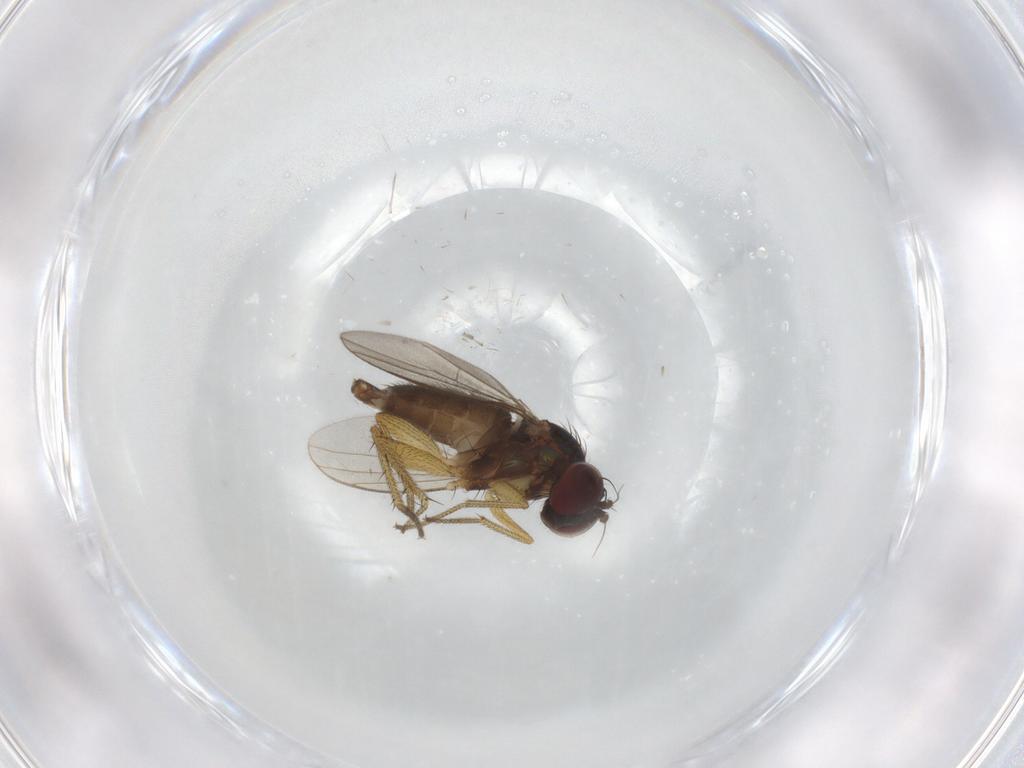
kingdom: Animalia
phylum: Arthropoda
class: Insecta
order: Diptera
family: Dolichopodidae
